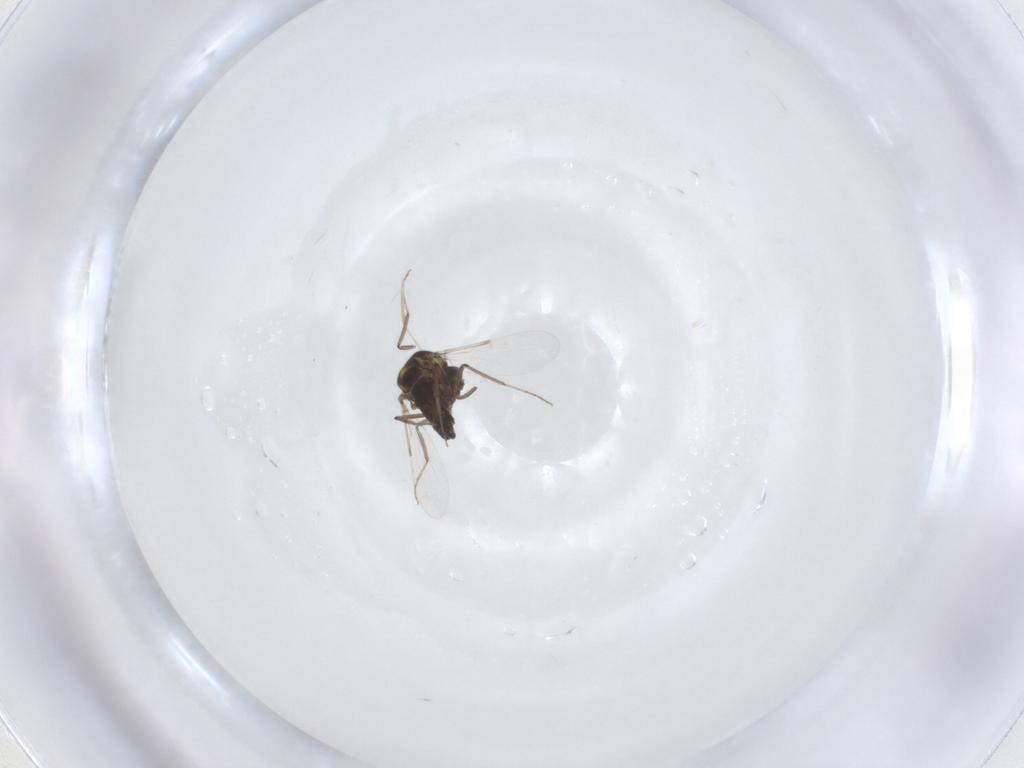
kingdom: Animalia
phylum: Arthropoda
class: Insecta
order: Diptera
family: Ceratopogonidae
